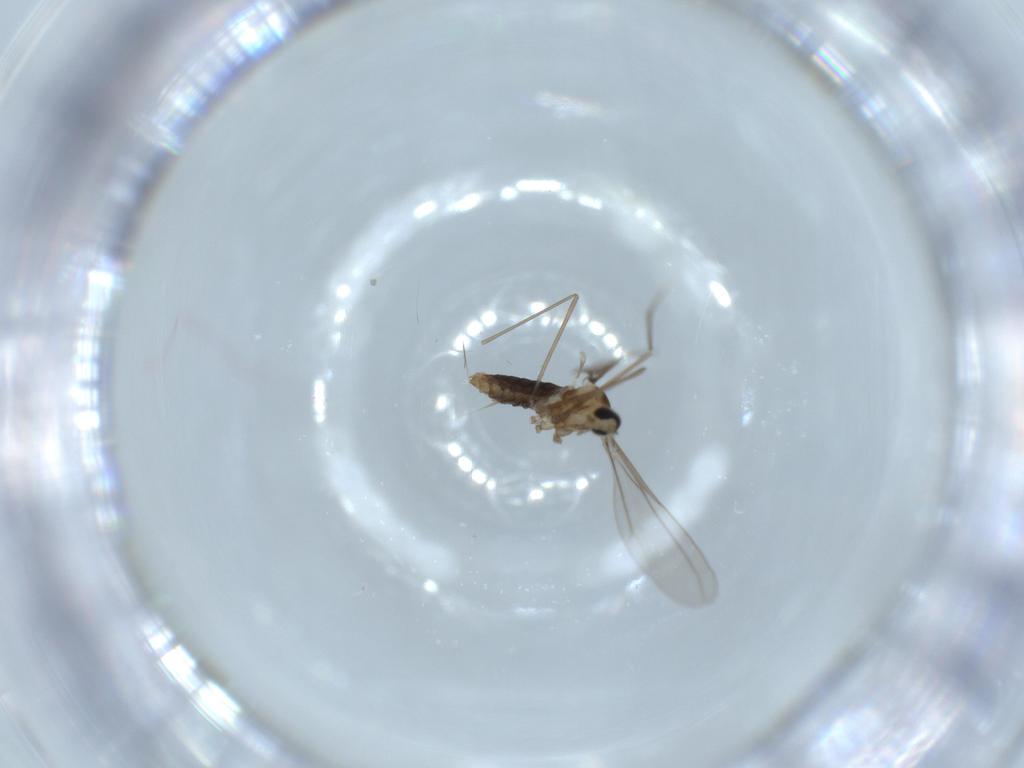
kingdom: Animalia
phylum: Arthropoda
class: Insecta
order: Diptera
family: Cecidomyiidae
